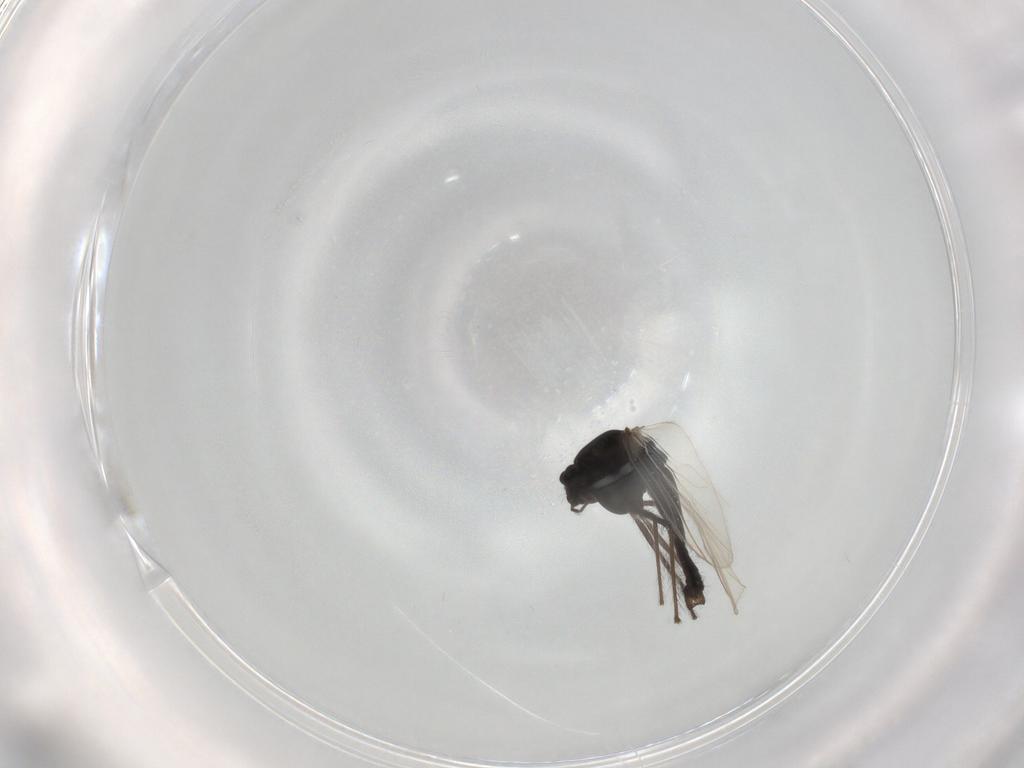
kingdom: Animalia
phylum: Arthropoda
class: Insecta
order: Diptera
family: Chironomidae
